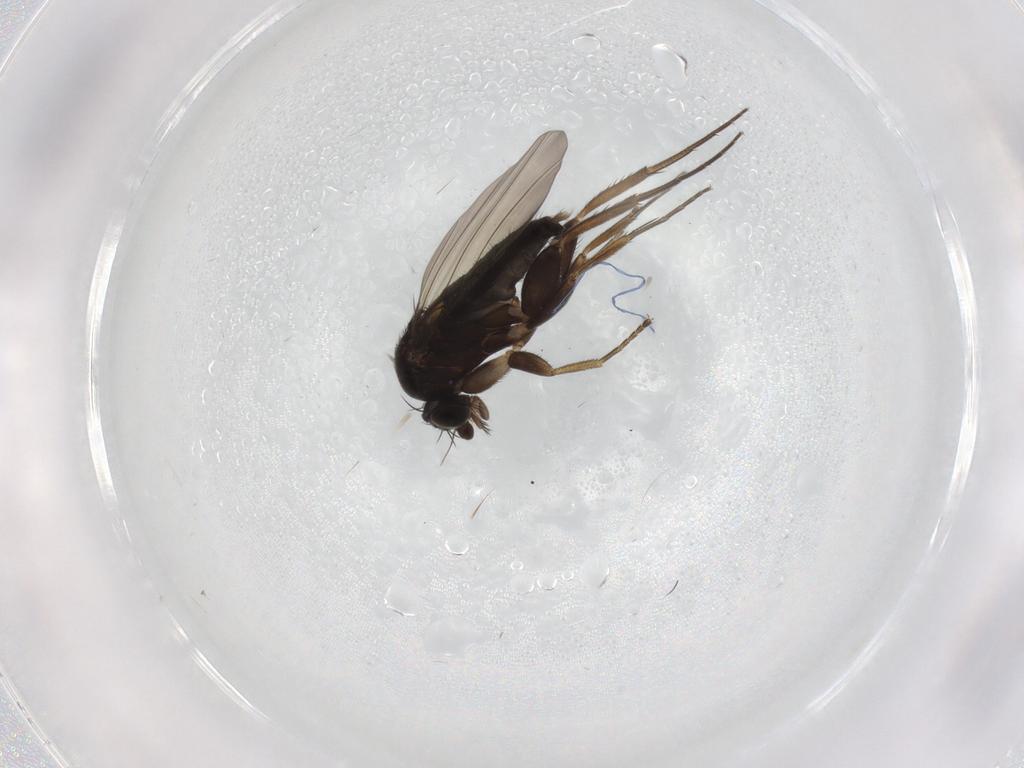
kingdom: Animalia
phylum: Arthropoda
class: Insecta
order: Diptera
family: Phoridae
